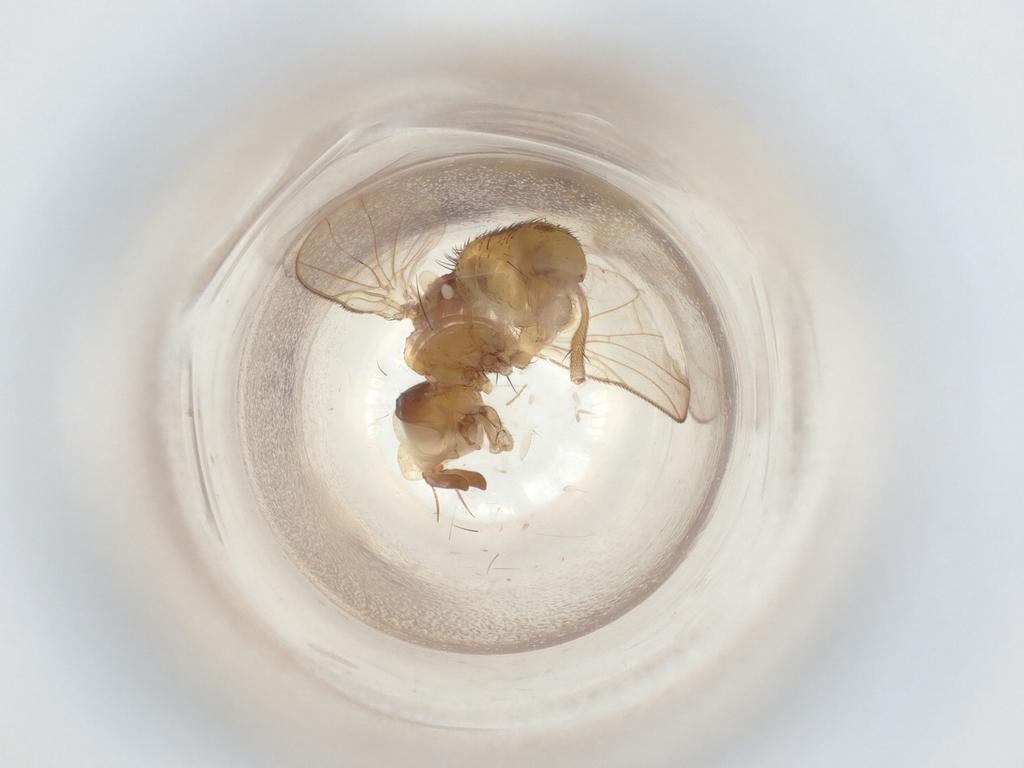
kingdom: Animalia
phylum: Arthropoda
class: Insecta
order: Diptera
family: Muscidae
